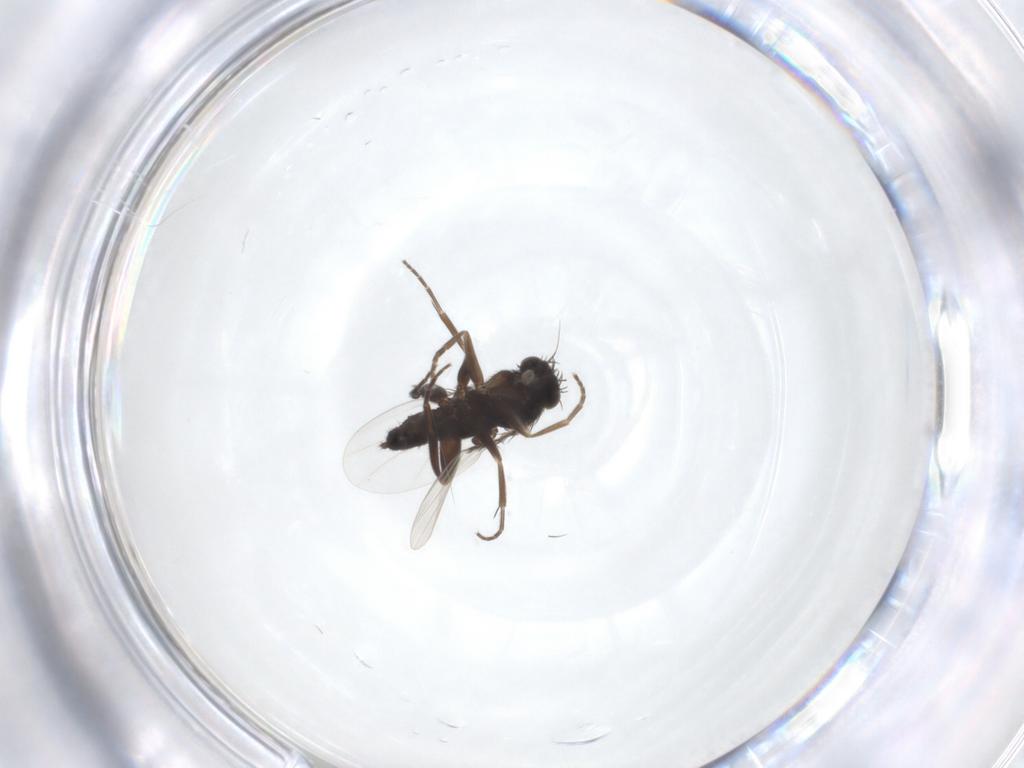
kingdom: Animalia
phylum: Arthropoda
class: Insecta
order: Diptera
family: Phoridae
